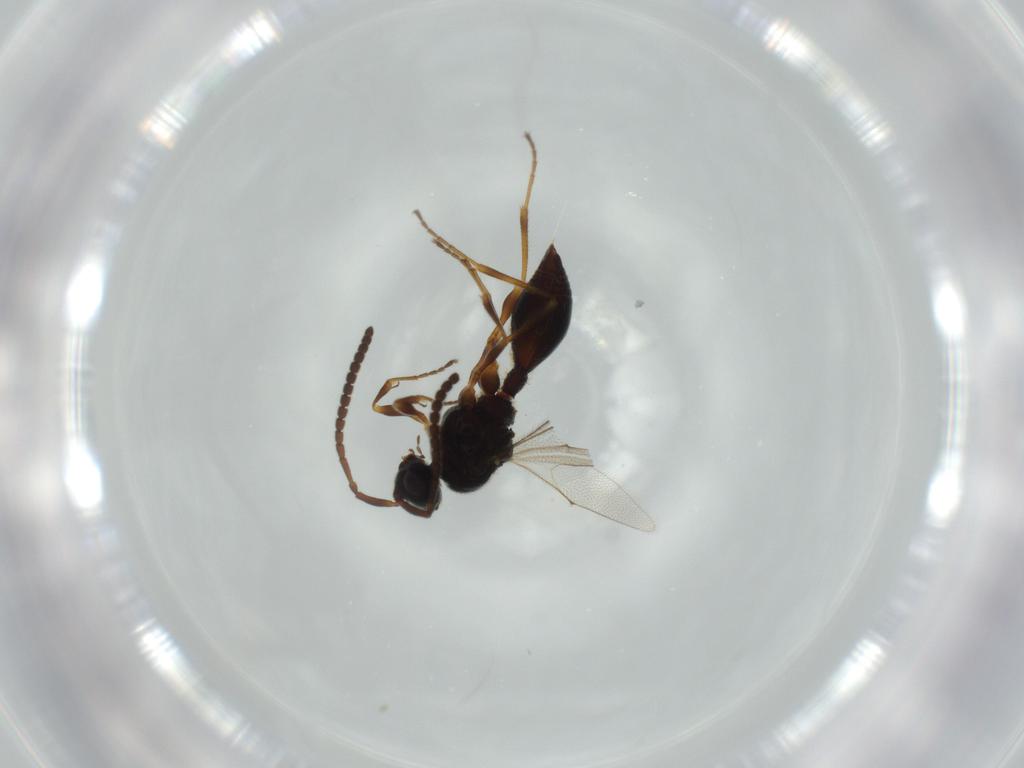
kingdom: Animalia
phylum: Arthropoda
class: Insecta
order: Hymenoptera
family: Diapriidae
